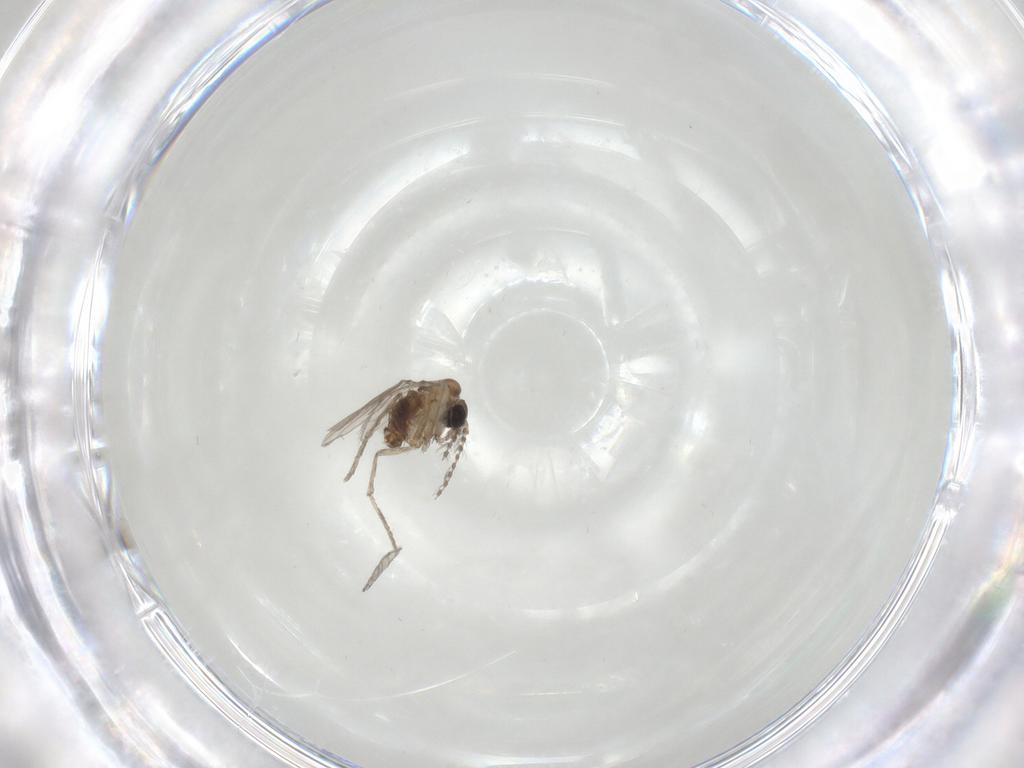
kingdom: Animalia
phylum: Arthropoda
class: Insecta
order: Diptera
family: Psychodidae
